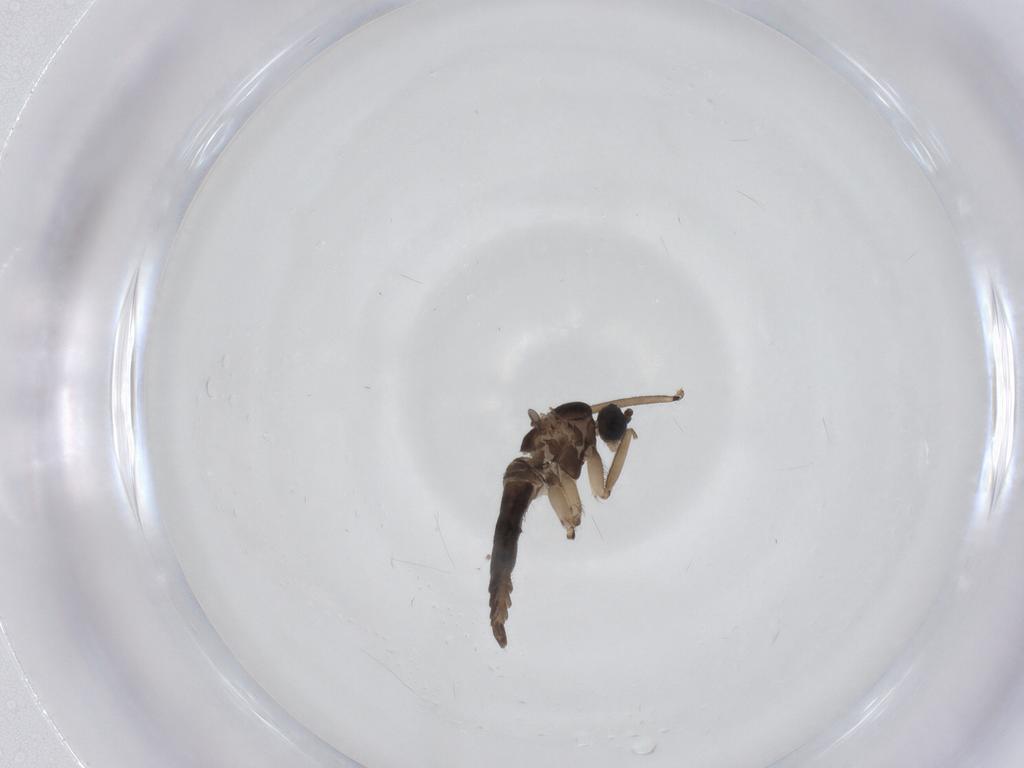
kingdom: Animalia
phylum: Arthropoda
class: Insecta
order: Diptera
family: Sciaridae
